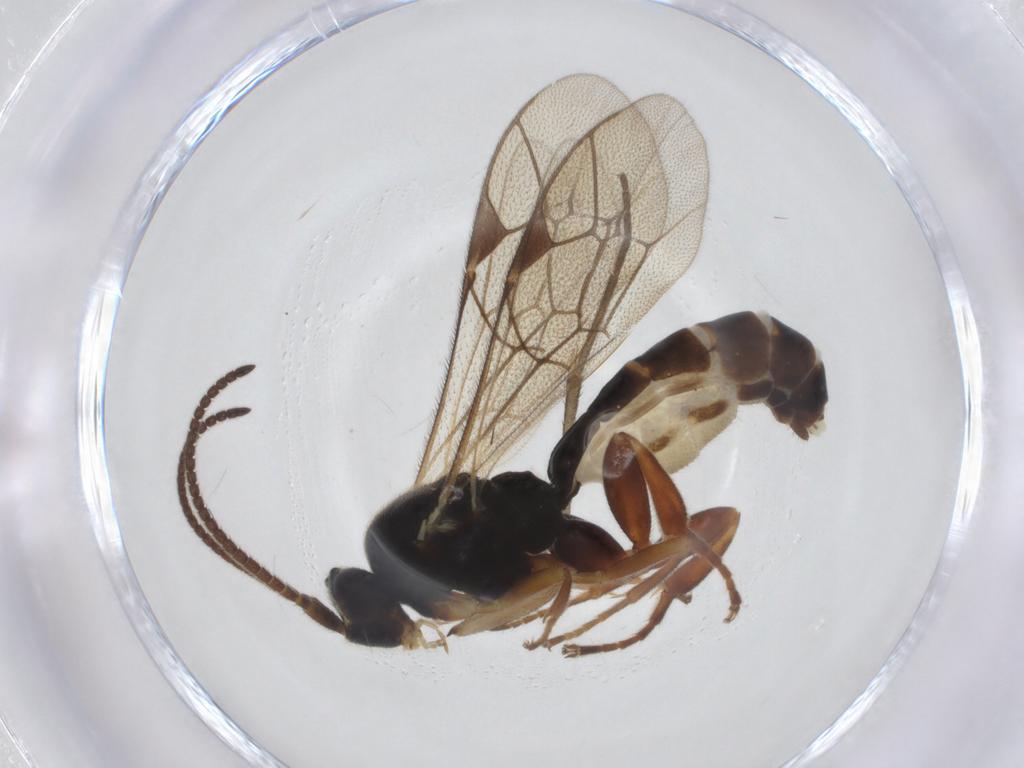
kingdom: Animalia
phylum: Arthropoda
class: Insecta
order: Hymenoptera
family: Ichneumonidae
